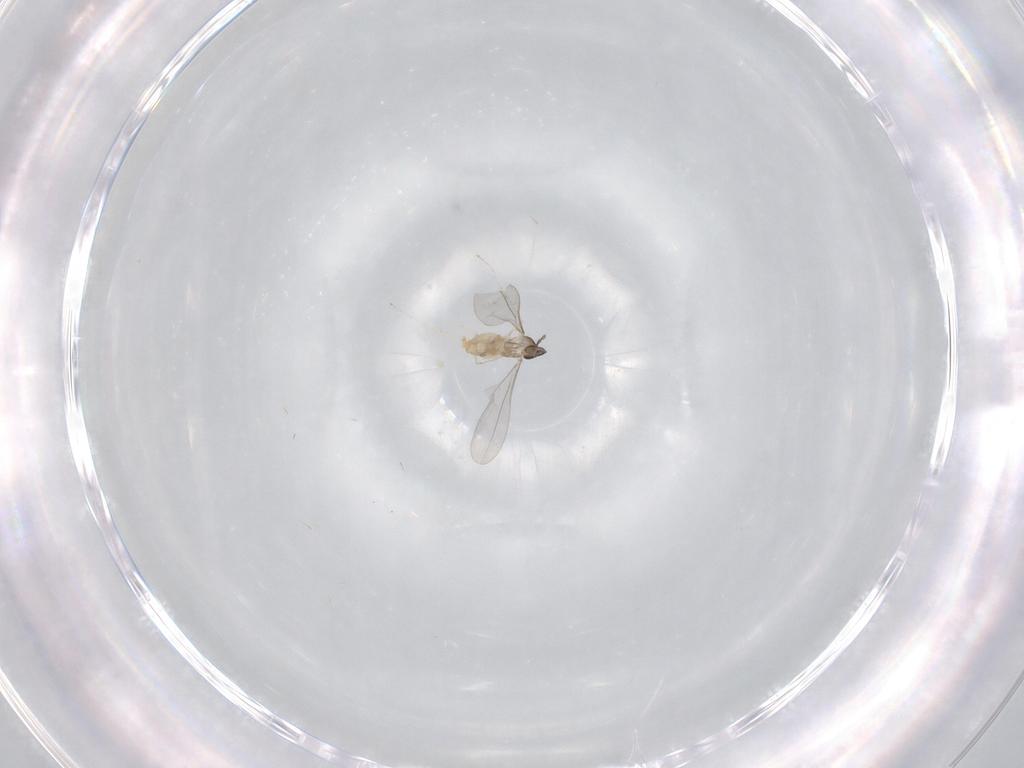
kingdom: Animalia
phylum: Arthropoda
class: Insecta
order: Diptera
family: Cecidomyiidae
